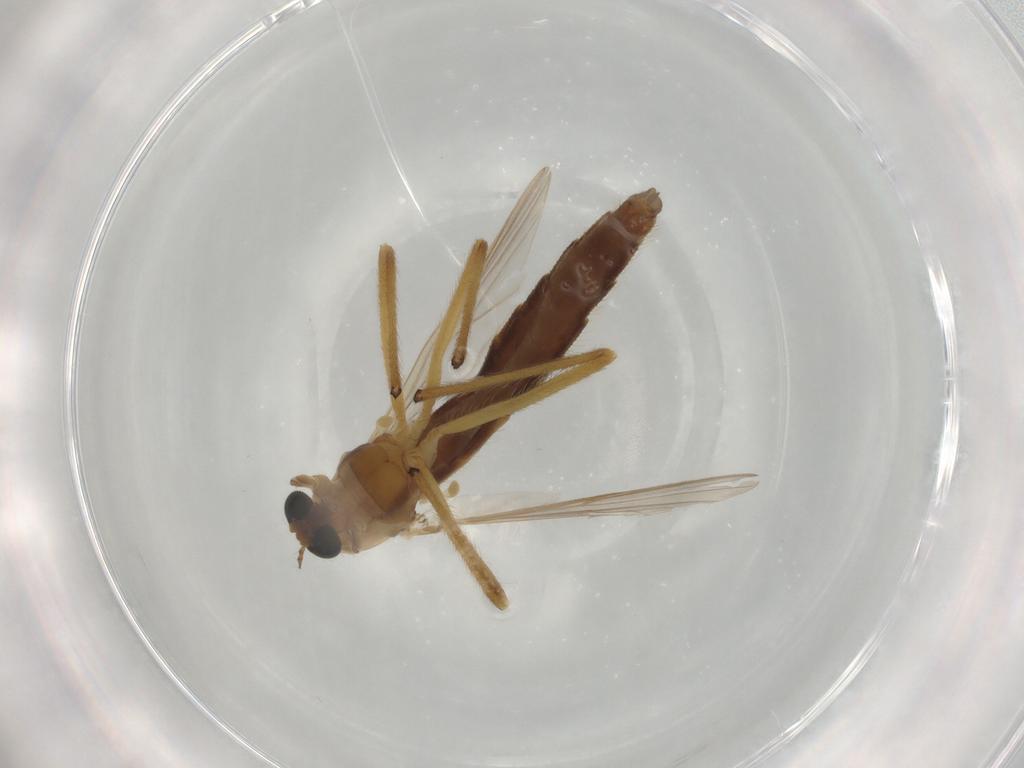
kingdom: Animalia
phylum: Arthropoda
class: Insecta
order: Diptera
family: Chironomidae
